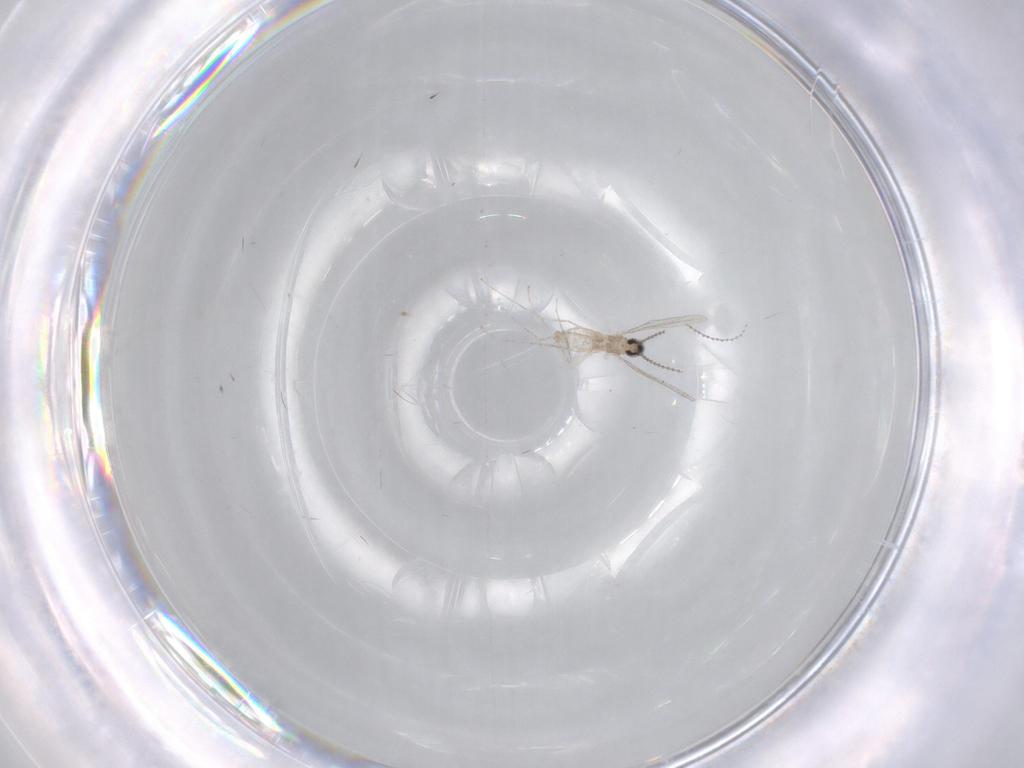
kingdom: Animalia
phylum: Arthropoda
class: Insecta
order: Diptera
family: Cecidomyiidae
